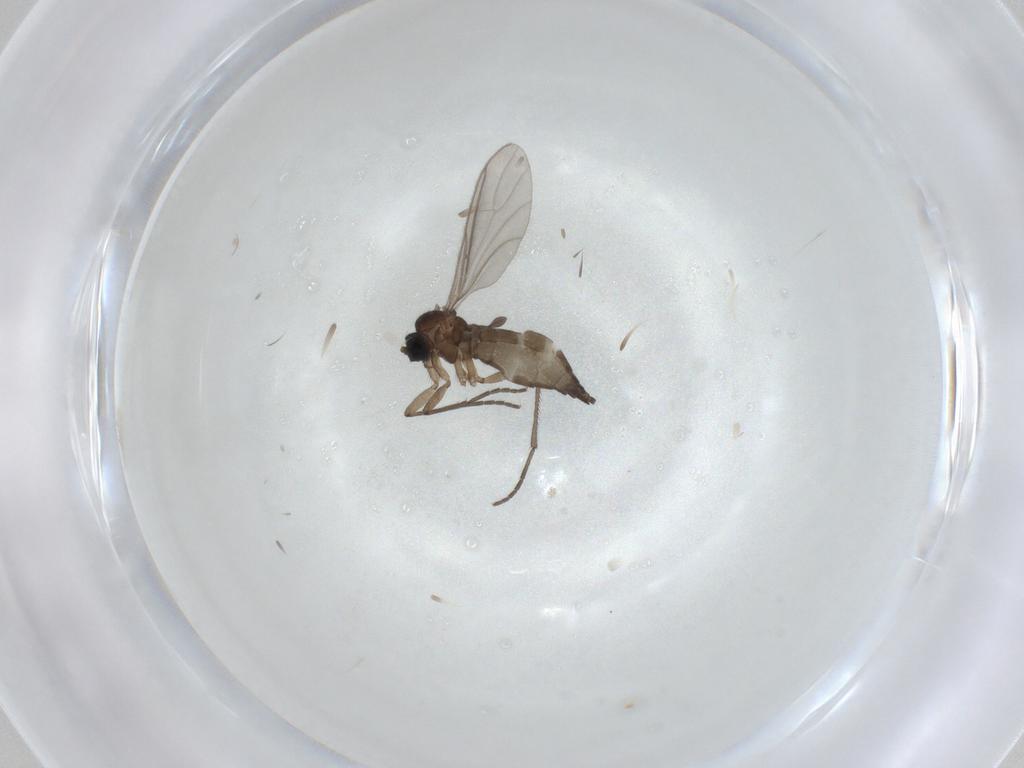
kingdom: Animalia
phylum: Arthropoda
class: Insecta
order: Diptera
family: Sciaridae
